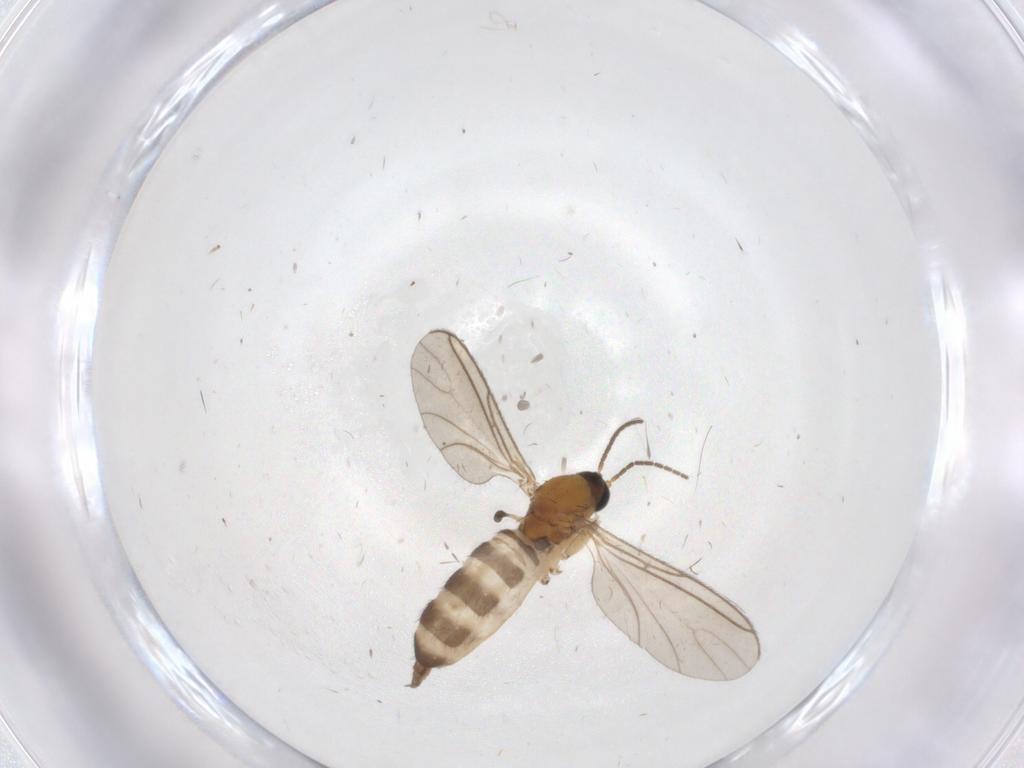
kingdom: Animalia
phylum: Arthropoda
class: Insecta
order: Diptera
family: Sciaridae
